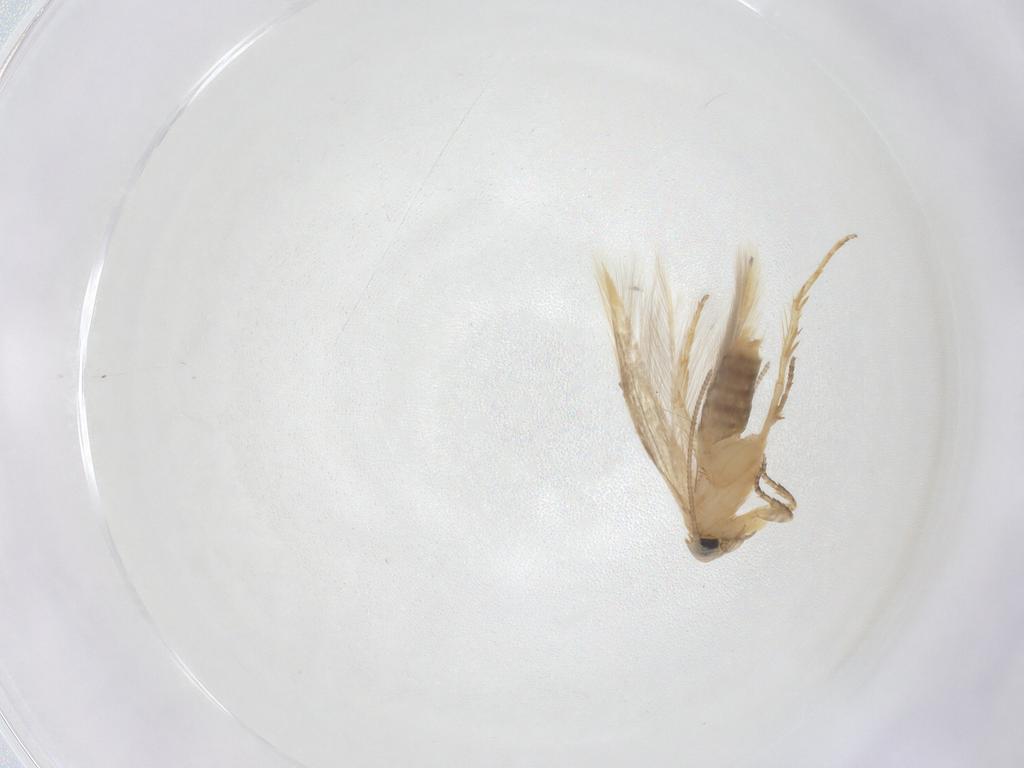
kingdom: Animalia
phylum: Arthropoda
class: Insecta
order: Lepidoptera
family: Opostegidae
